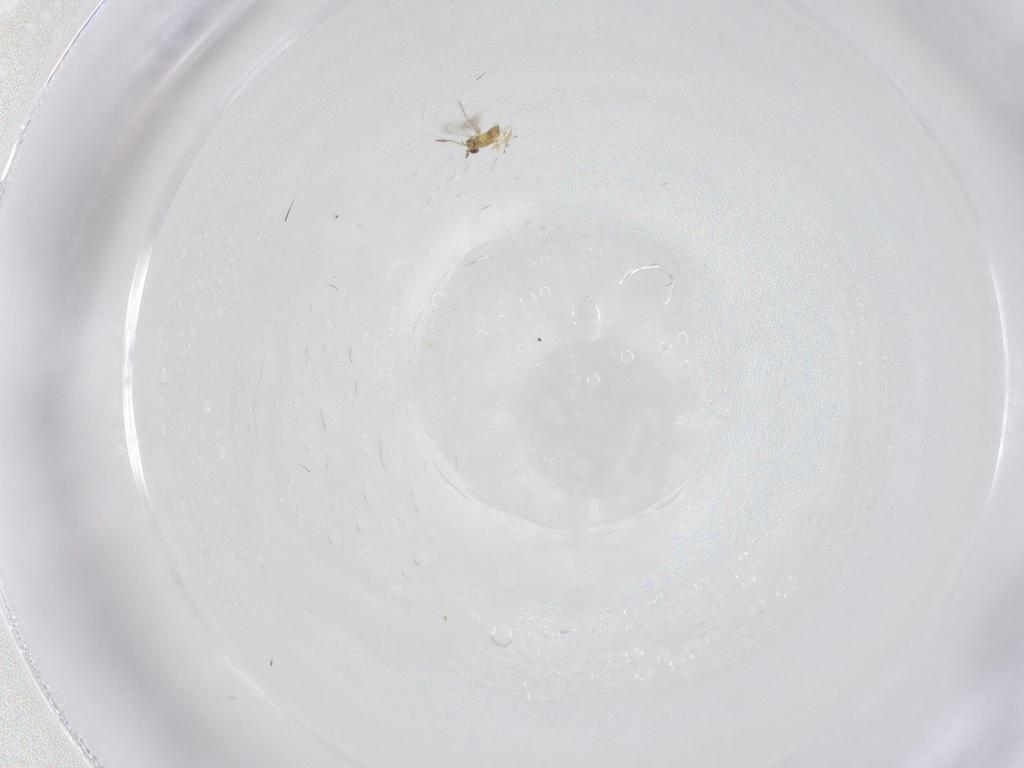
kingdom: Animalia
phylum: Arthropoda
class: Insecta
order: Hymenoptera
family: Mymaridae
